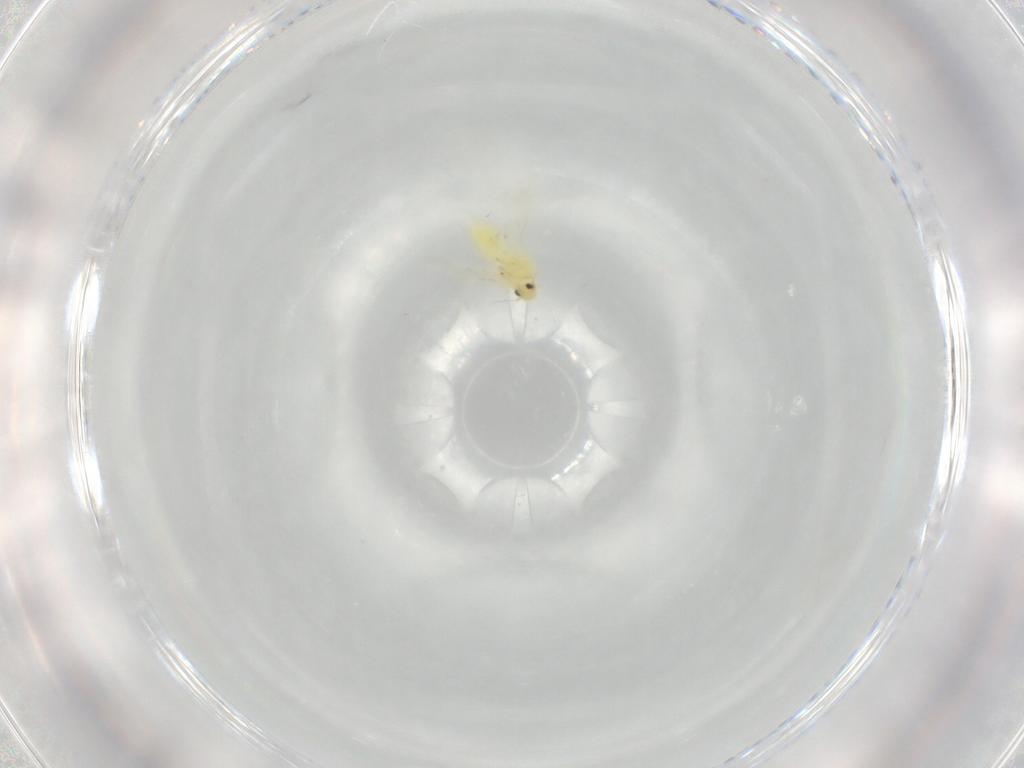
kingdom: Animalia
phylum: Arthropoda
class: Insecta
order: Hemiptera
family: Aleyrodidae
